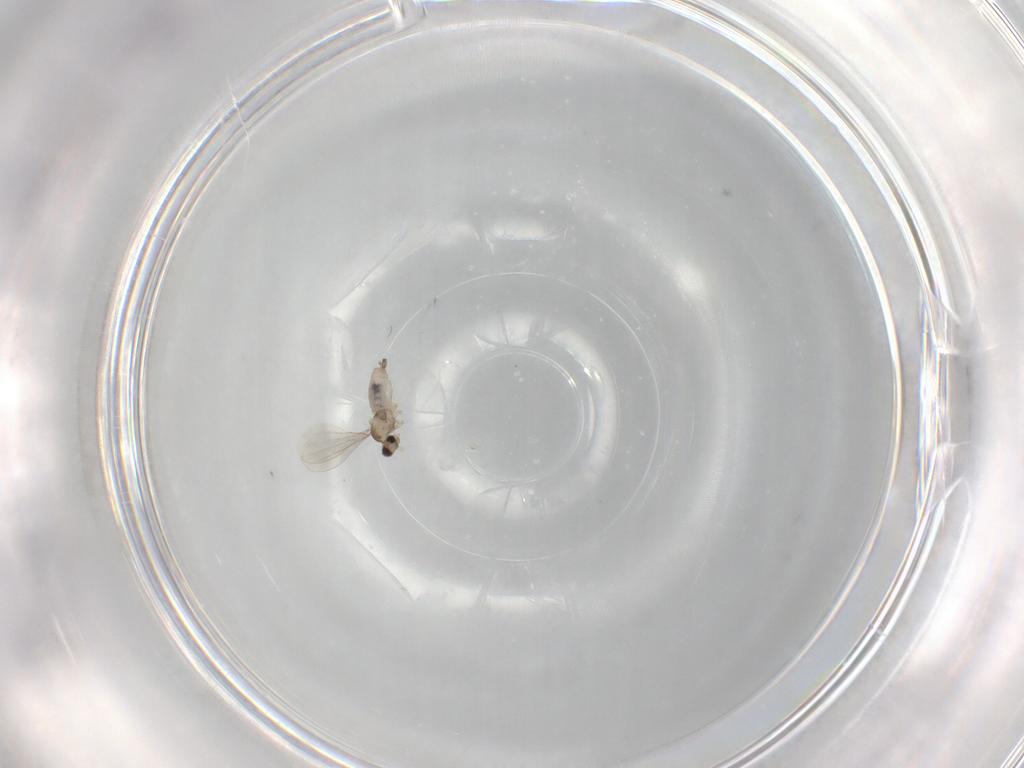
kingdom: Animalia
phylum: Arthropoda
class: Insecta
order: Diptera
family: Cecidomyiidae
